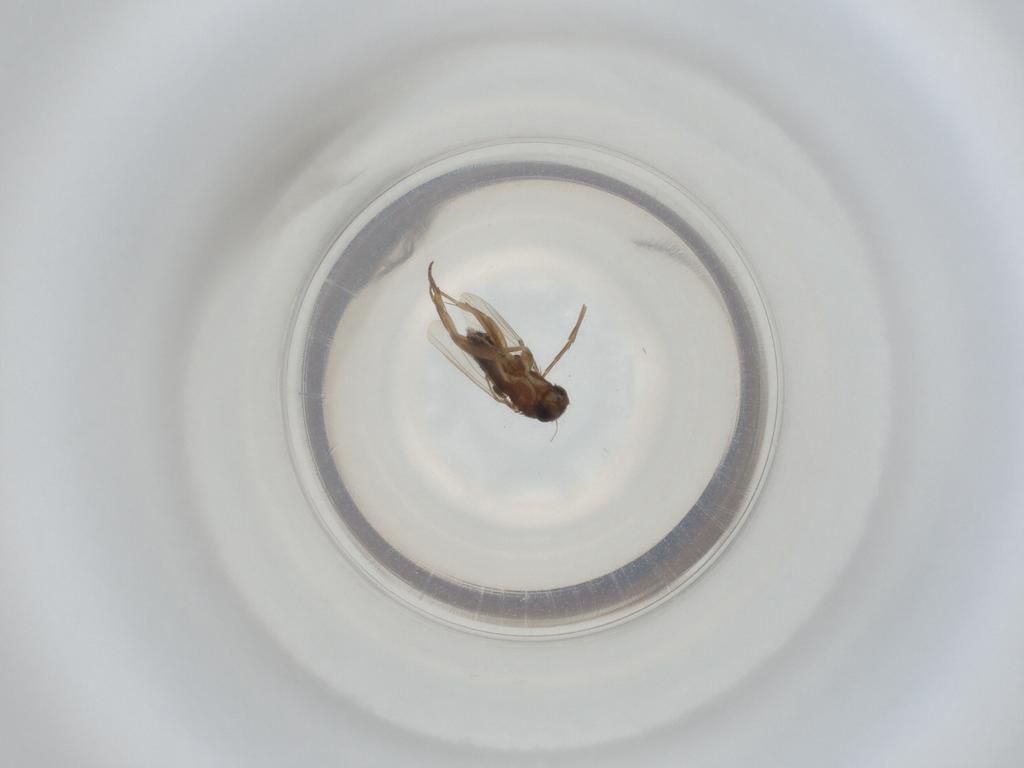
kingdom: Animalia
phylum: Arthropoda
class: Insecta
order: Diptera
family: Phoridae
